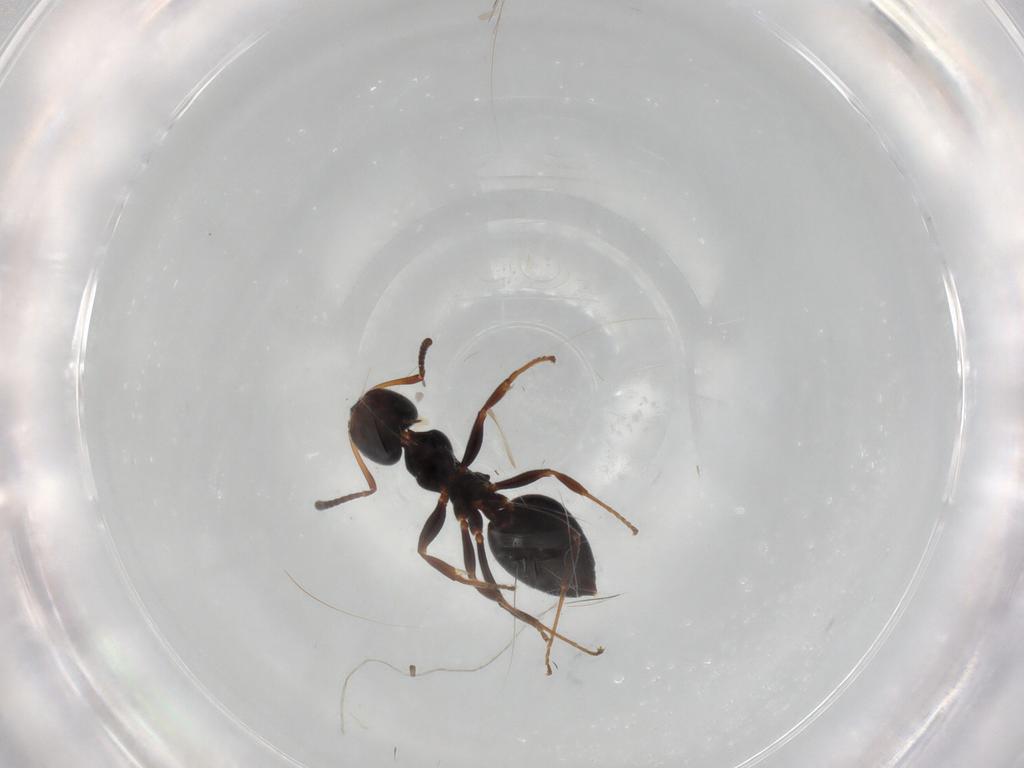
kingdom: Animalia
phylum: Arthropoda
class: Insecta
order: Hymenoptera
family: Formicidae
